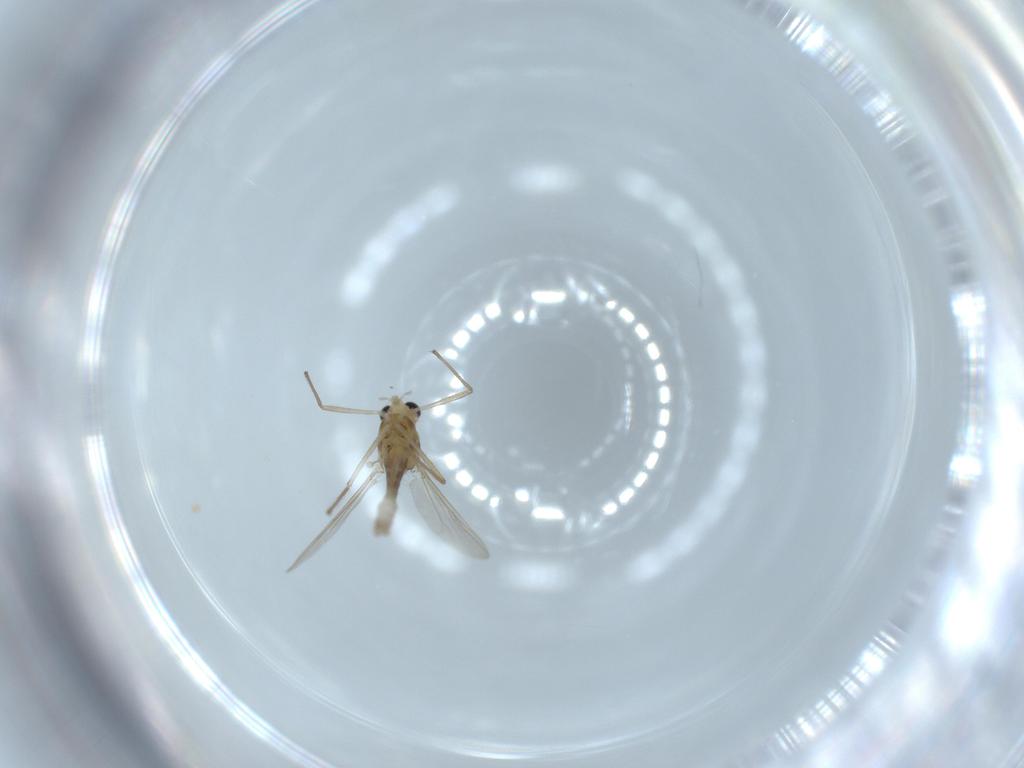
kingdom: Animalia
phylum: Arthropoda
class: Insecta
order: Diptera
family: Chironomidae
